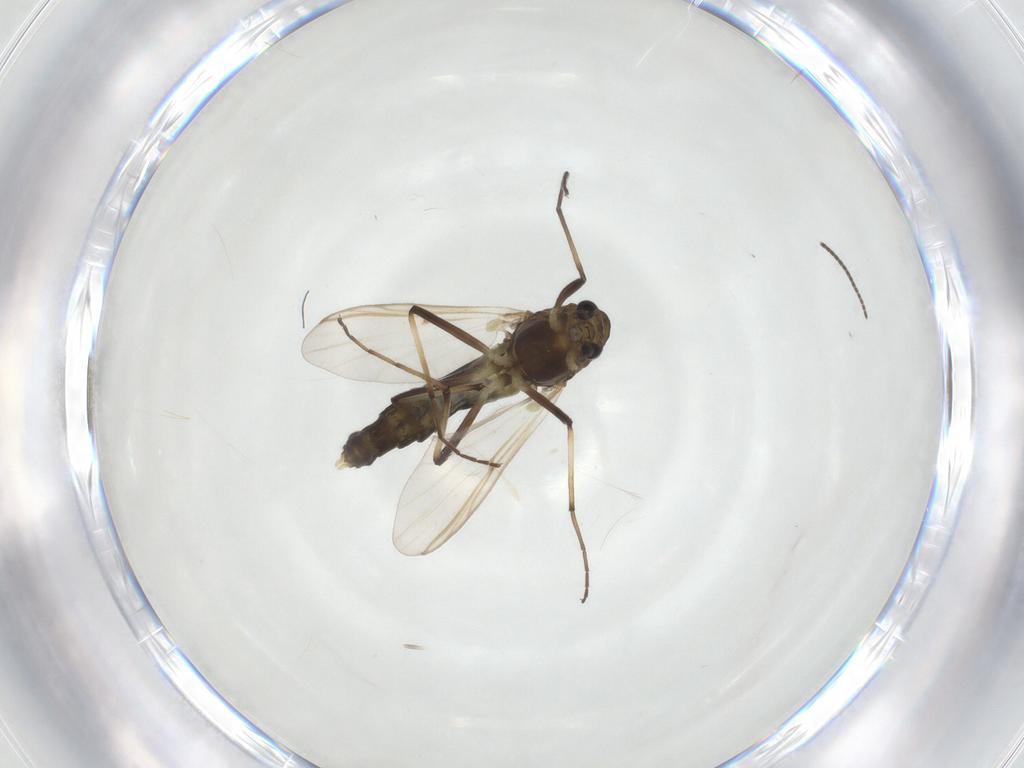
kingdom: Animalia
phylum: Arthropoda
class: Insecta
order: Diptera
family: Chironomidae
